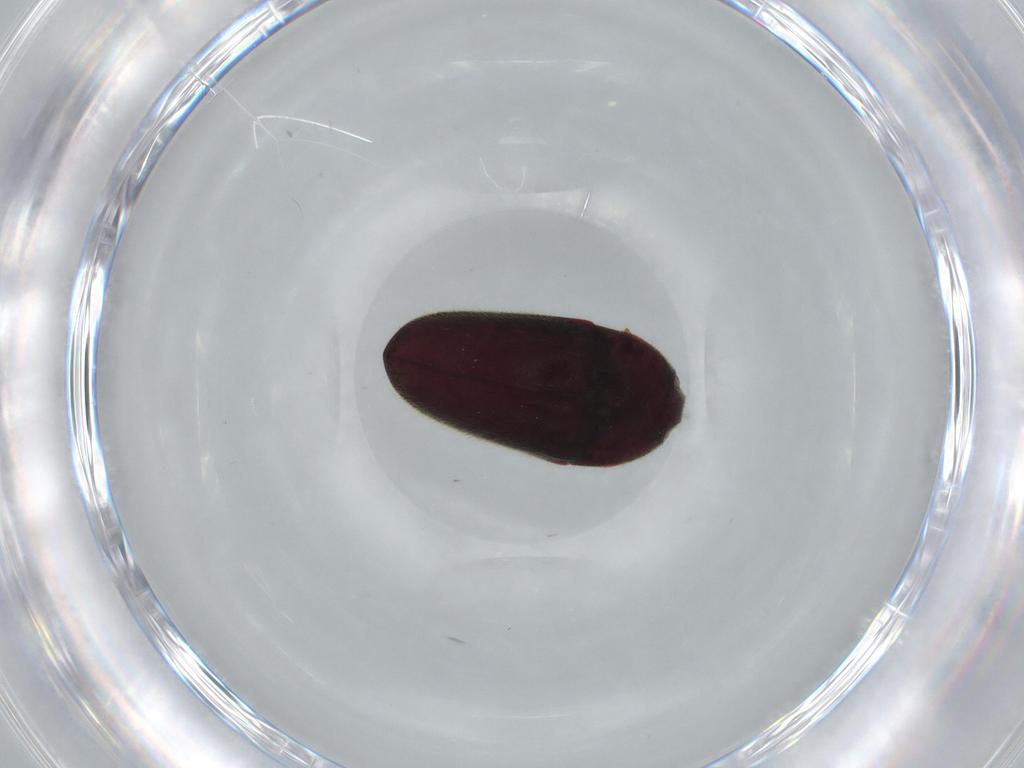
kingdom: Animalia
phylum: Arthropoda
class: Insecta
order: Coleoptera
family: Throscidae
